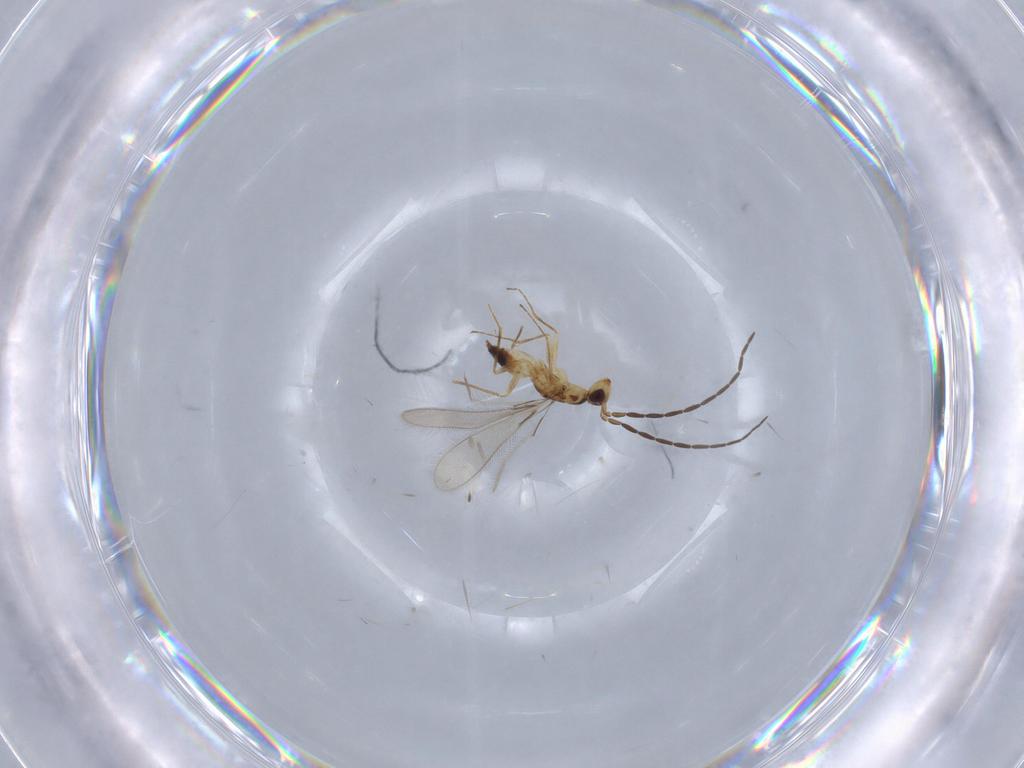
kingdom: Animalia
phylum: Arthropoda
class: Insecta
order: Hymenoptera
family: Mymaridae
